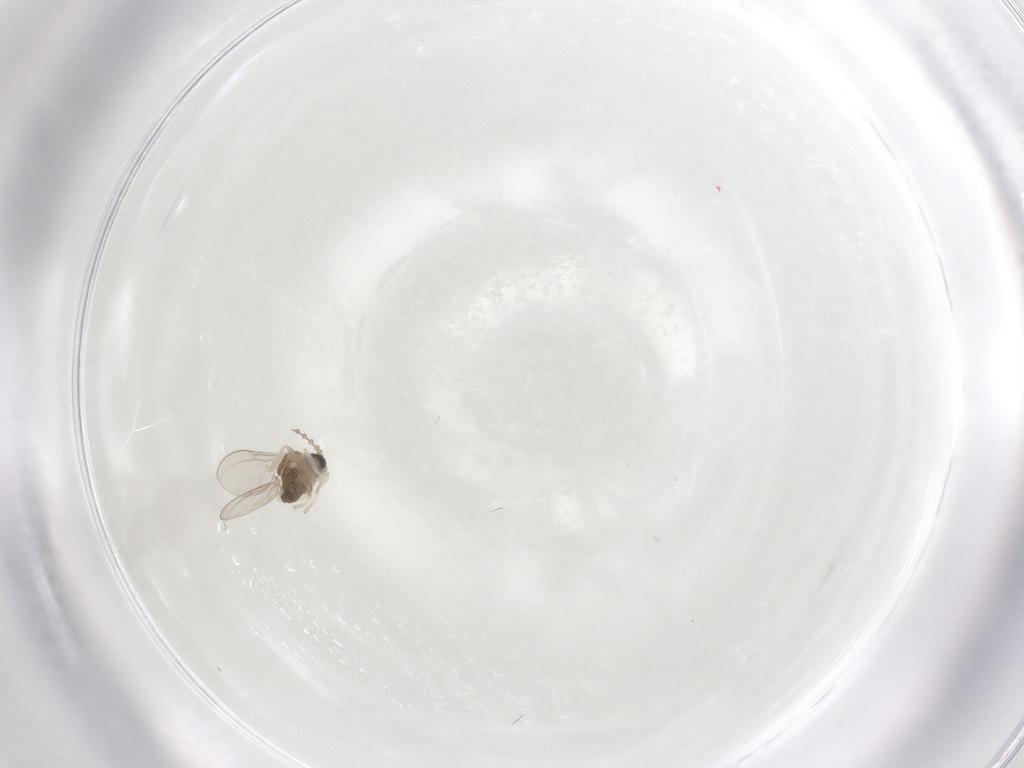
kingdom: Animalia
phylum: Arthropoda
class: Insecta
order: Diptera
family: Cecidomyiidae
